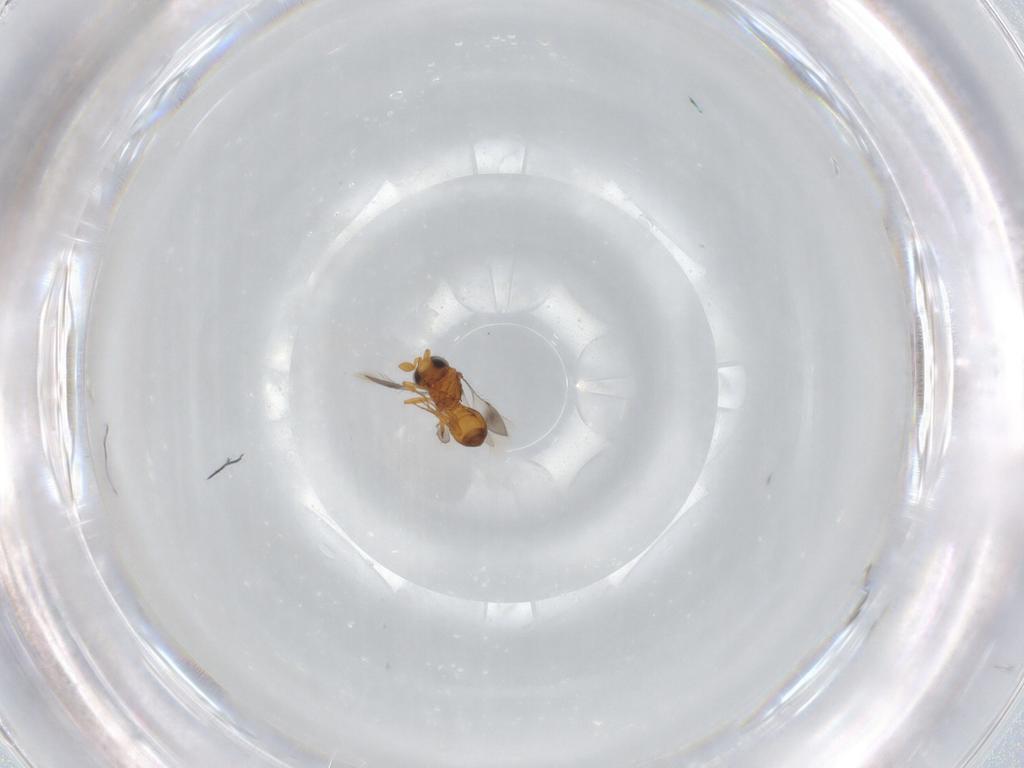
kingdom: Animalia
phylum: Arthropoda
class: Insecta
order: Hymenoptera
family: Scelionidae
